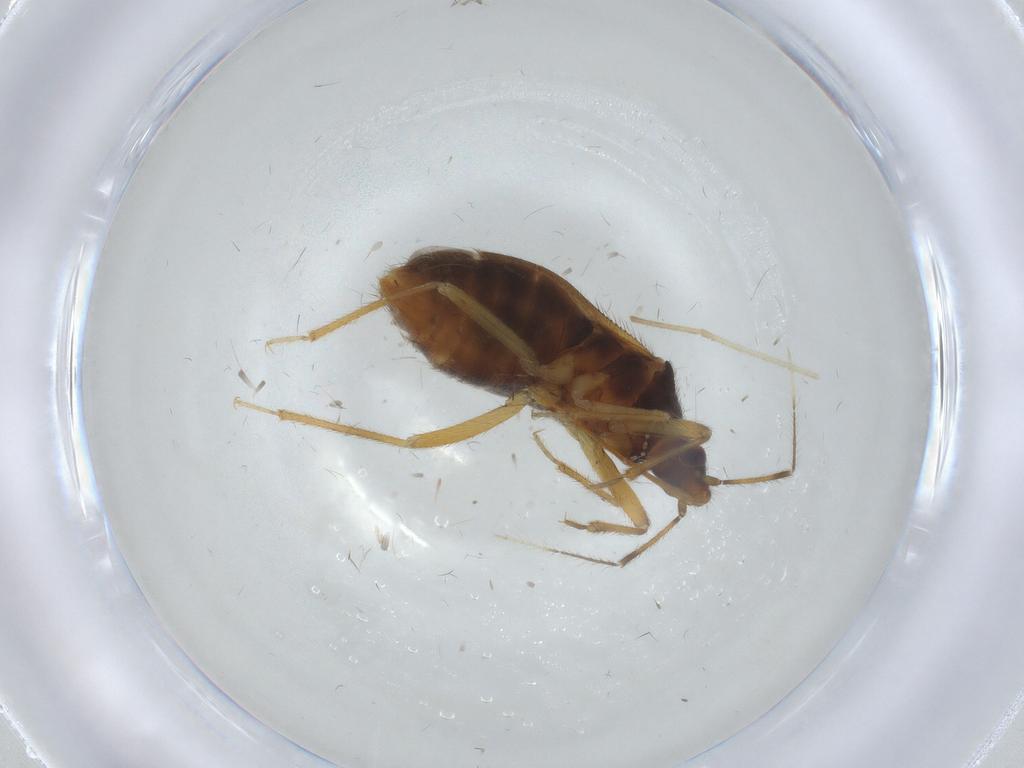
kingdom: Animalia
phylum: Arthropoda
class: Insecta
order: Hemiptera
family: Anthocoridae
